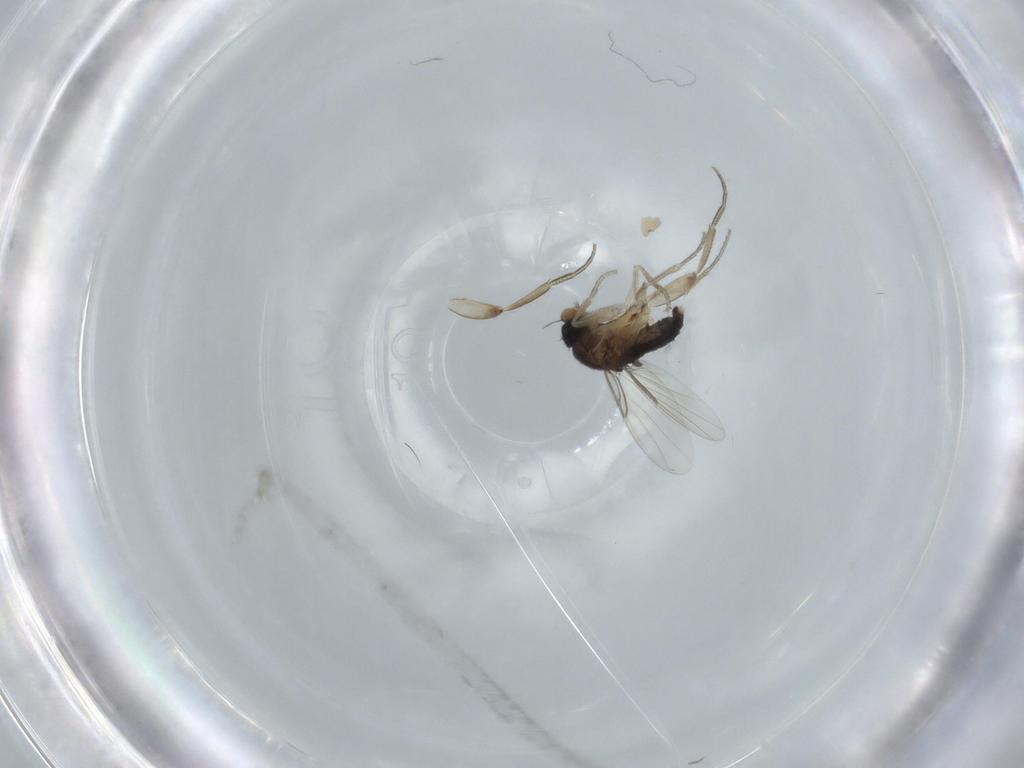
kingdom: Animalia
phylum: Arthropoda
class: Insecta
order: Diptera
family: Phoridae
